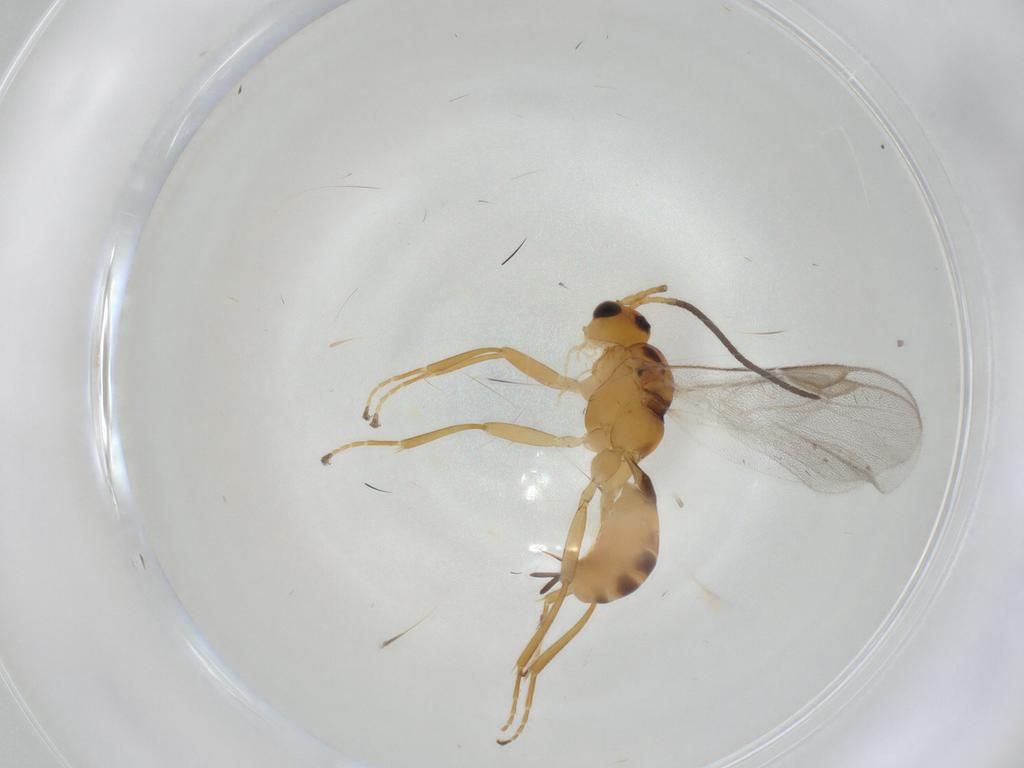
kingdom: Animalia
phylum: Arthropoda
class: Insecta
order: Hymenoptera
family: Braconidae
